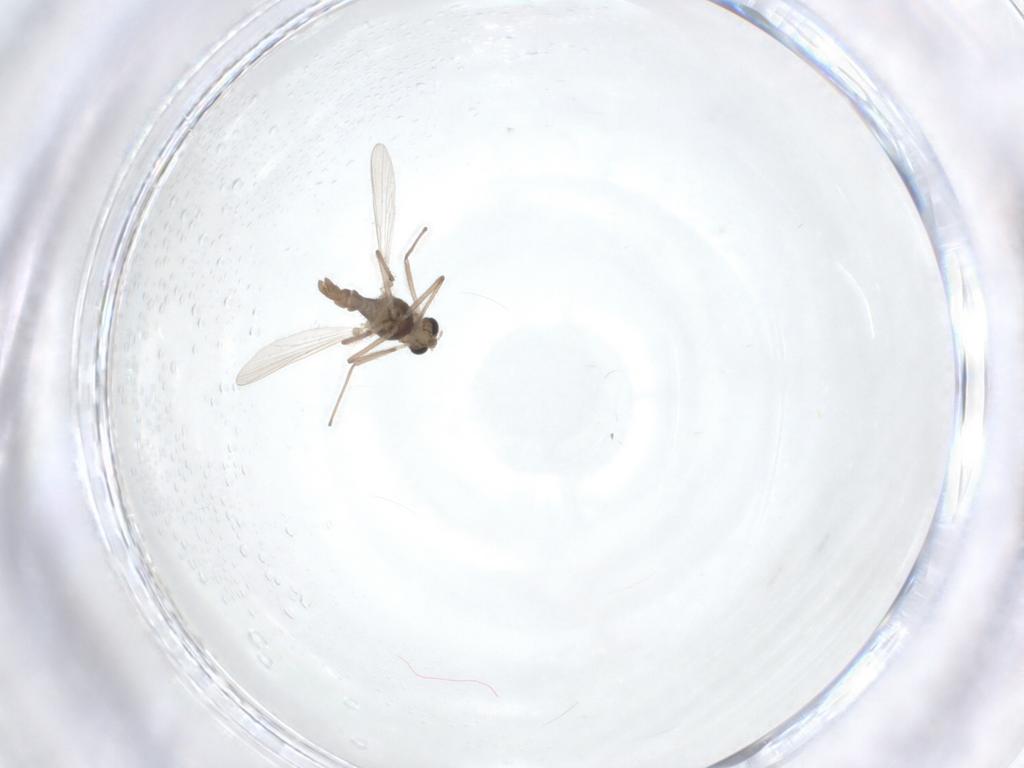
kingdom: Animalia
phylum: Arthropoda
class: Insecta
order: Diptera
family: Chironomidae
